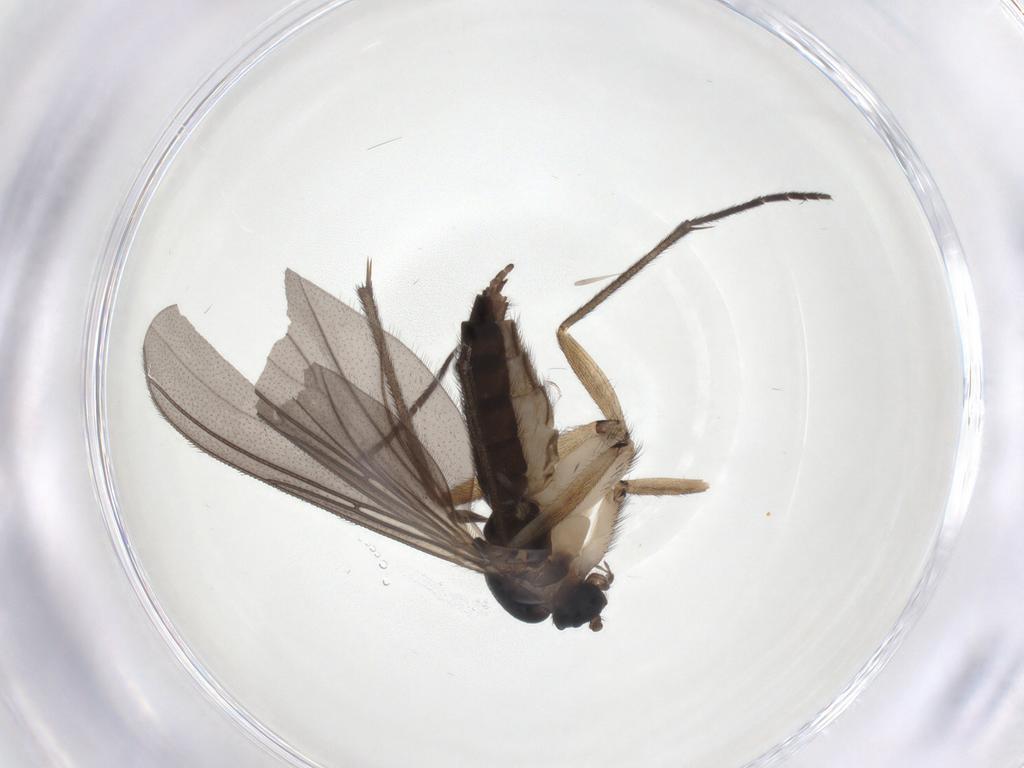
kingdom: Animalia
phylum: Arthropoda
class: Insecta
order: Diptera
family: Sciaridae
